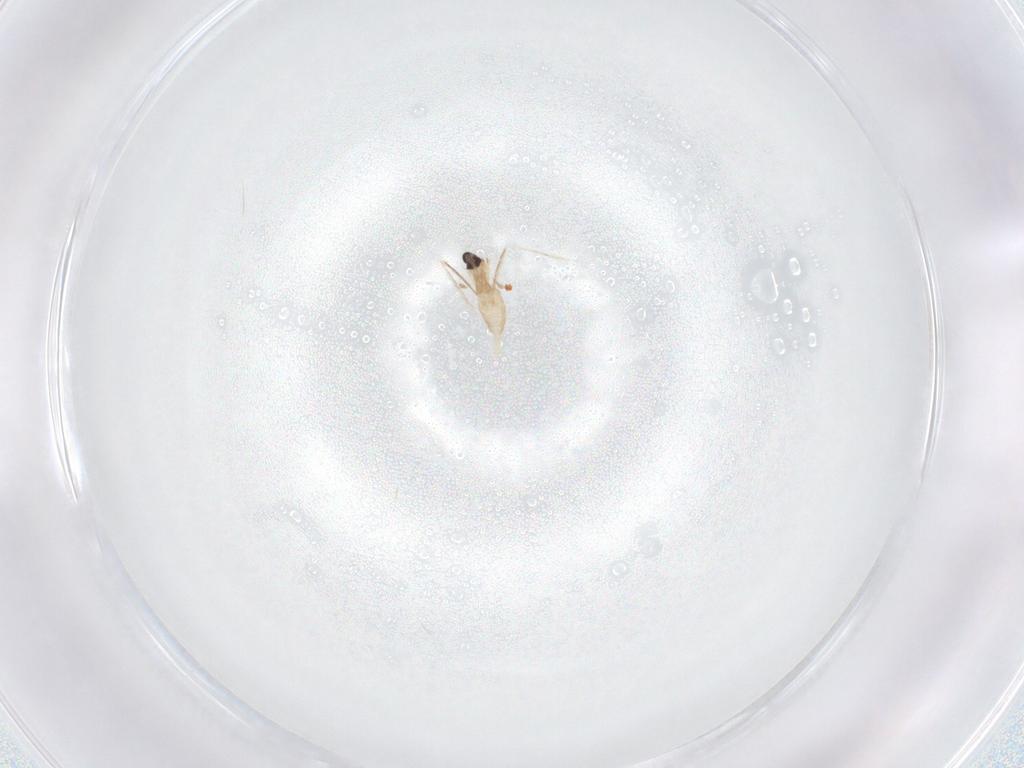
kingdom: Animalia
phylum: Arthropoda
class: Insecta
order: Diptera
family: Cecidomyiidae
